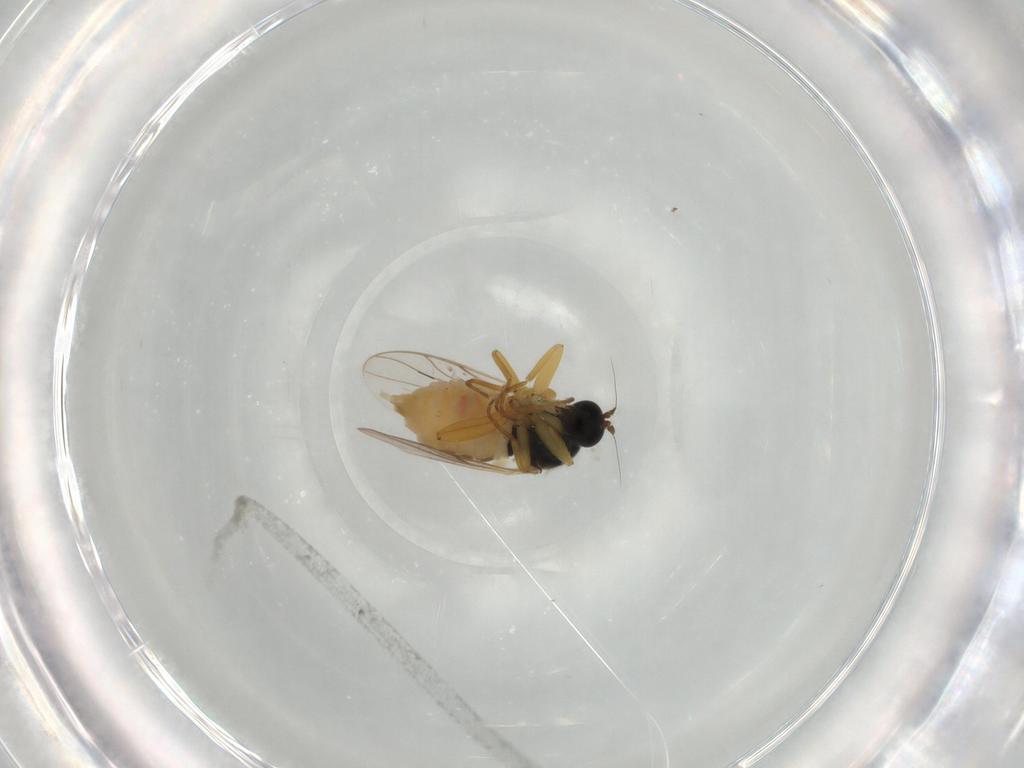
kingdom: Animalia
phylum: Arthropoda
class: Insecta
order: Diptera
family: Hybotidae
